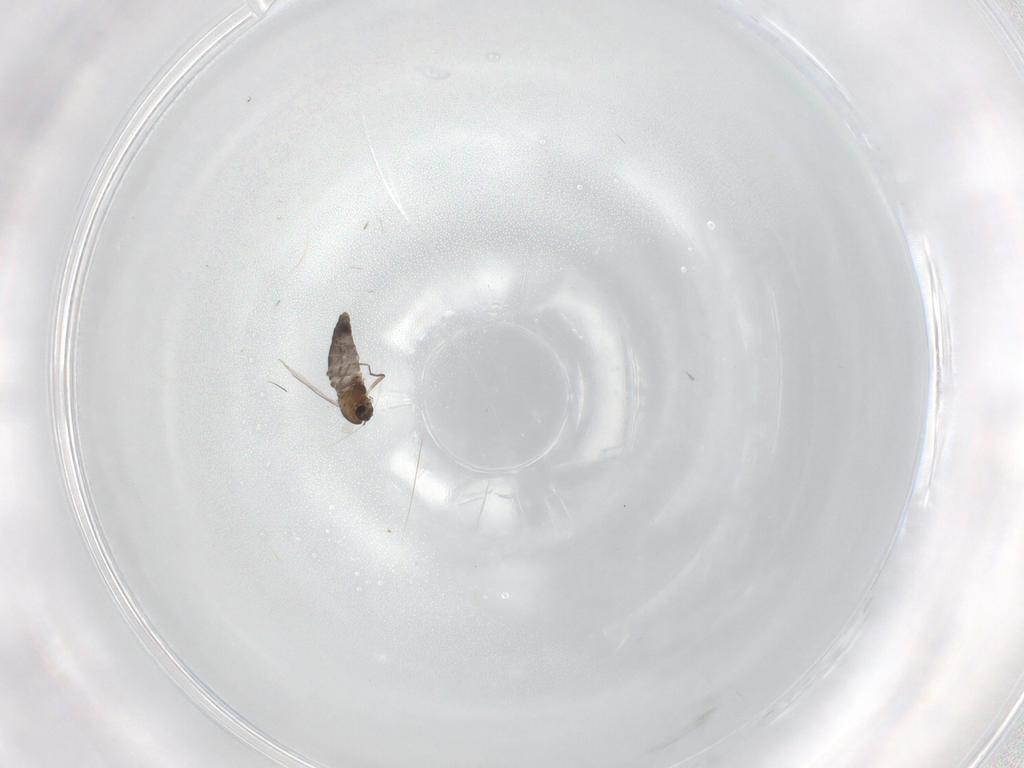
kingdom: Animalia
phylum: Arthropoda
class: Insecta
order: Diptera
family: Chironomidae
